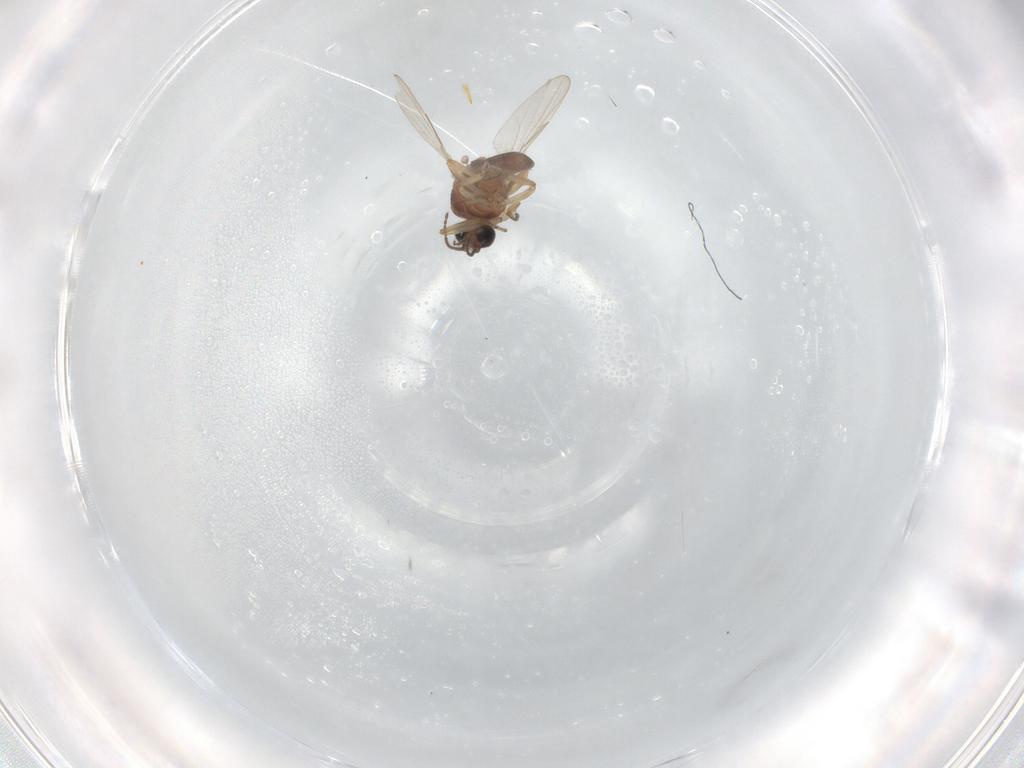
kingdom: Animalia
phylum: Arthropoda
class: Insecta
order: Diptera
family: Ceratopogonidae
